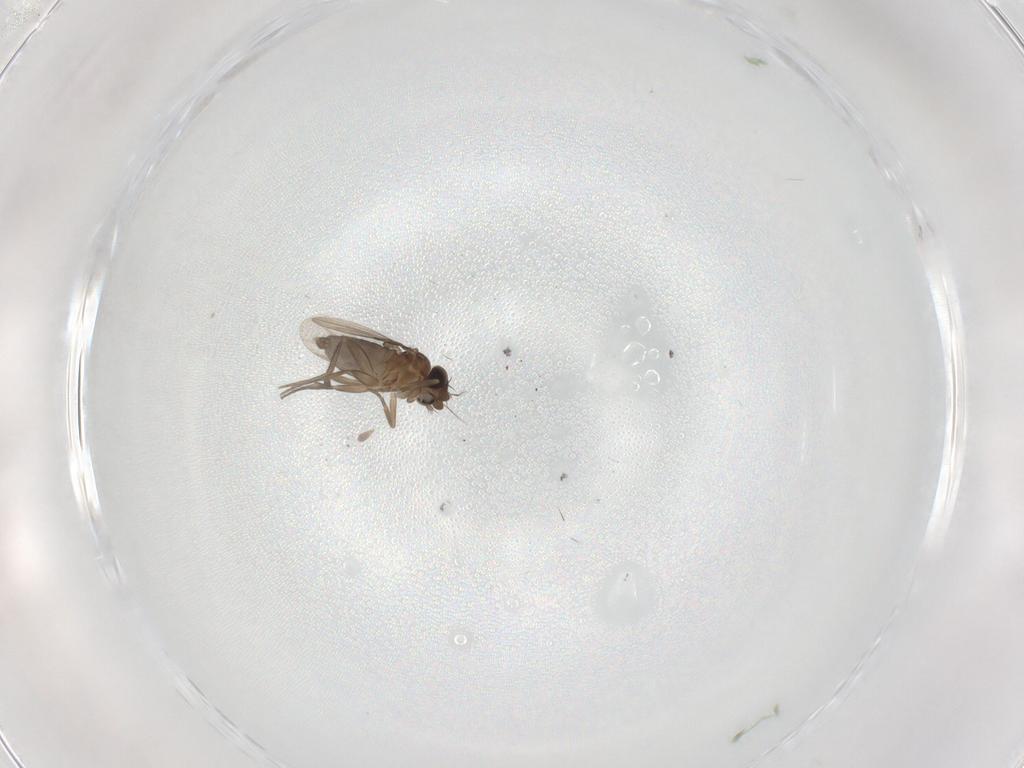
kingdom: Animalia
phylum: Arthropoda
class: Insecta
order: Diptera
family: Phoridae
